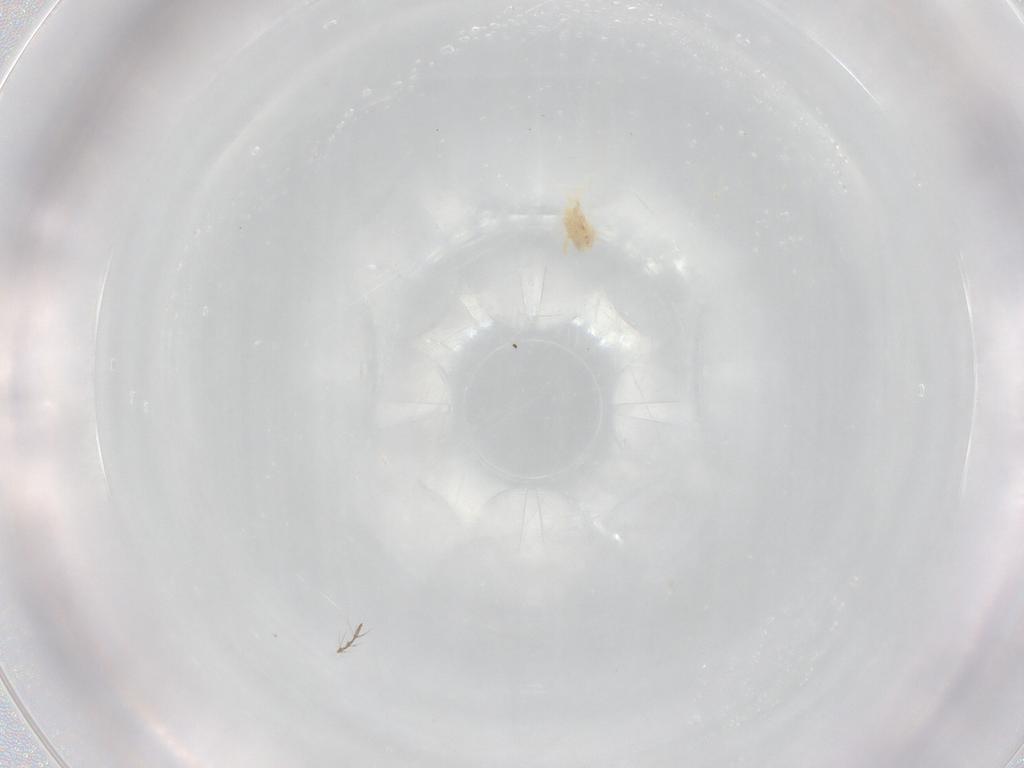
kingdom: Animalia
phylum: Arthropoda
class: Arachnida
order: Trombidiformes
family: Eupodidae
